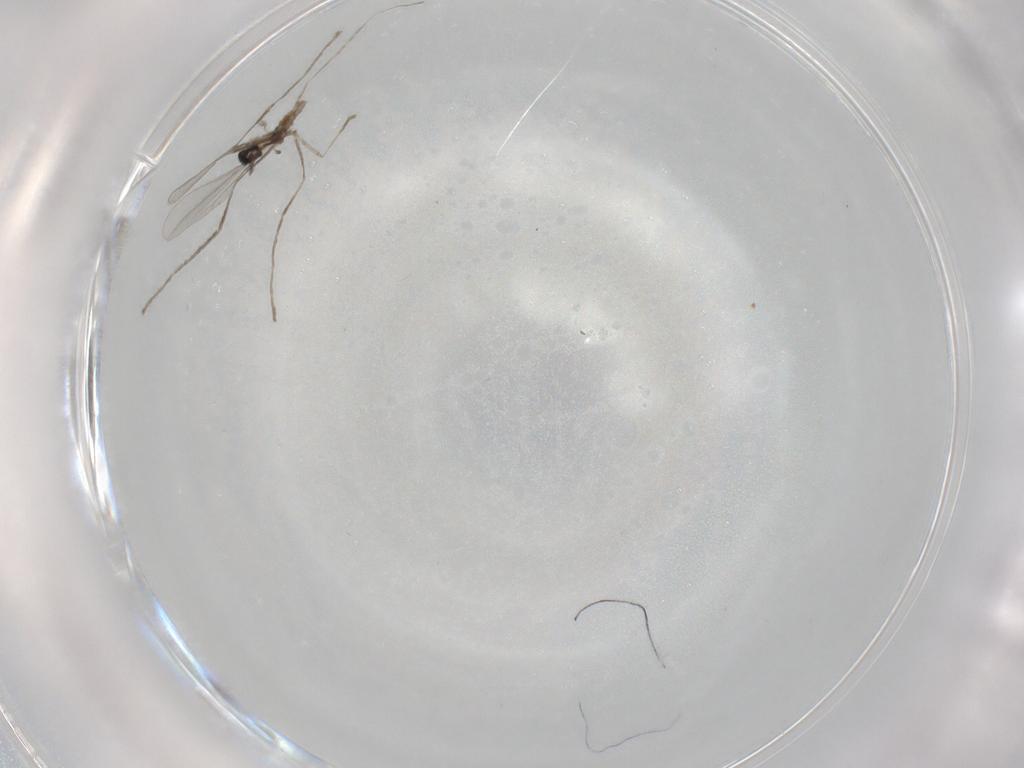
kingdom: Animalia
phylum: Arthropoda
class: Insecta
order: Diptera
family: Cecidomyiidae
